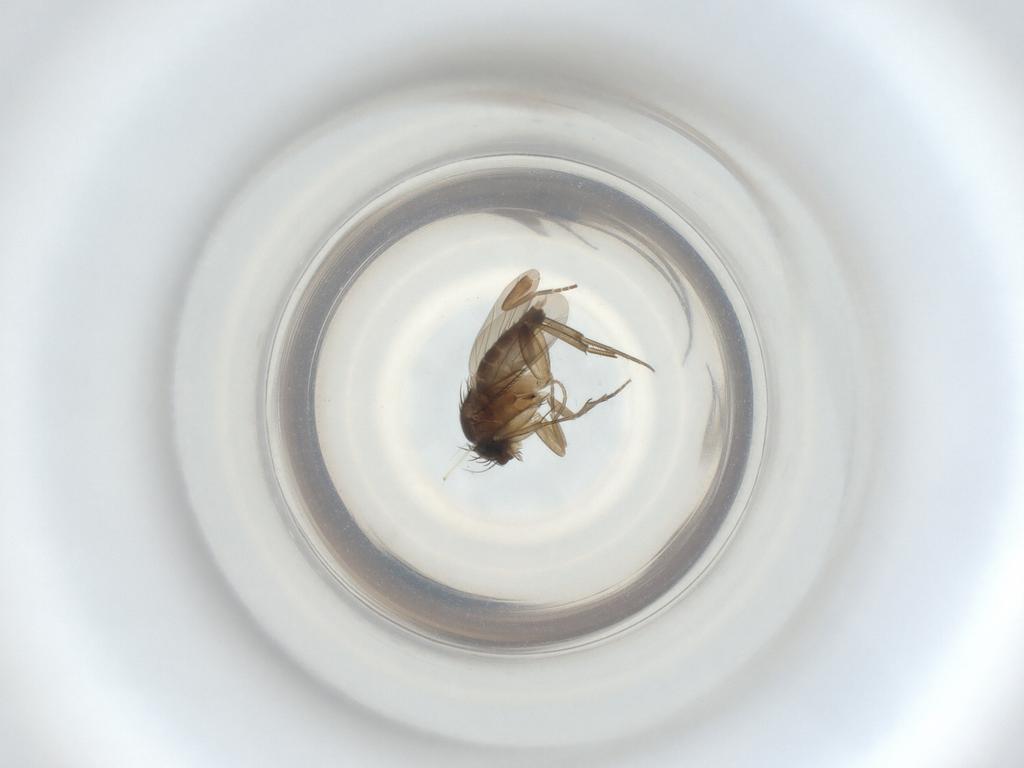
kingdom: Animalia
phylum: Arthropoda
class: Insecta
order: Diptera
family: Phoridae
